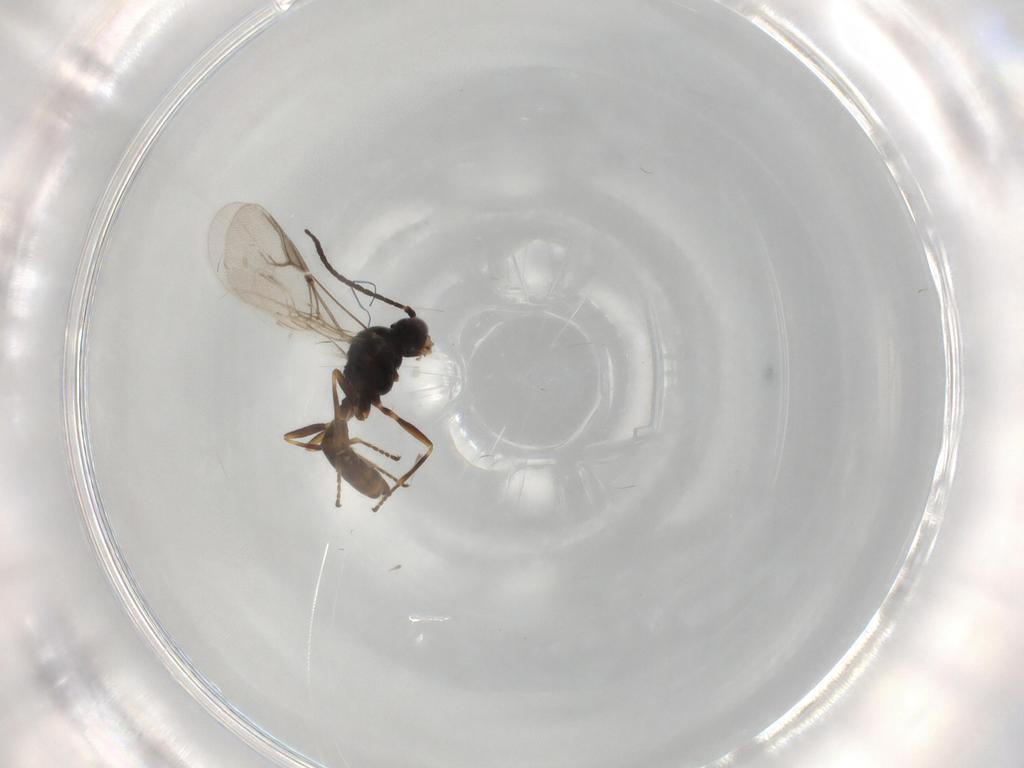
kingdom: Animalia
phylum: Arthropoda
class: Insecta
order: Hymenoptera
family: Braconidae
